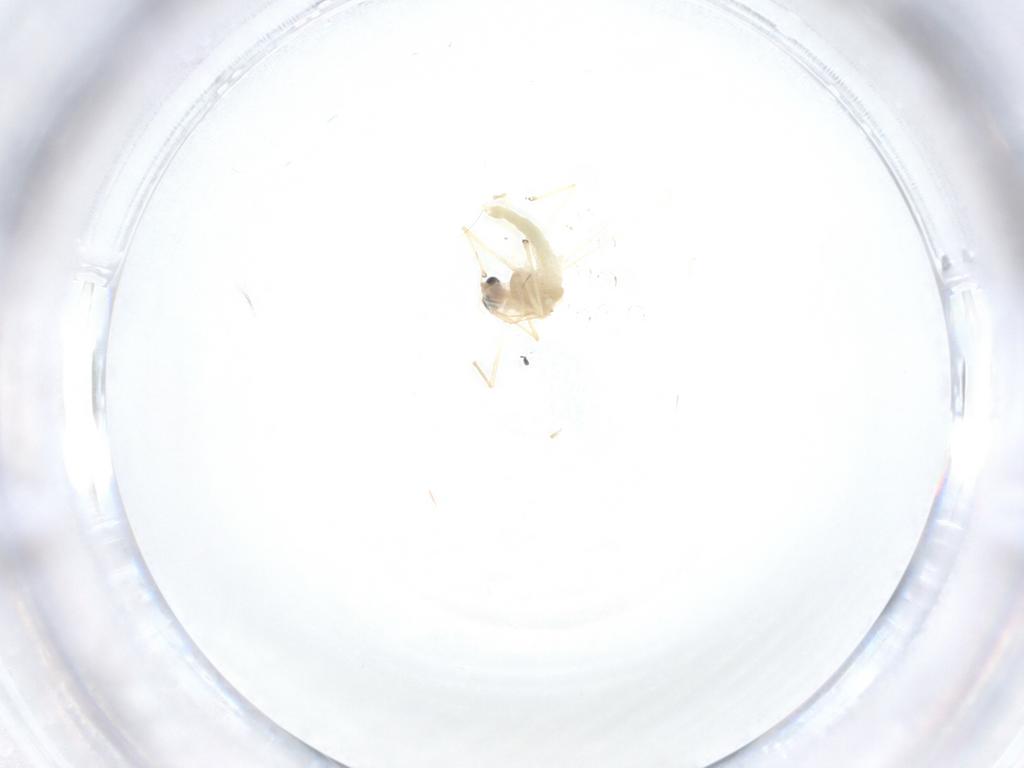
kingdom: Animalia
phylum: Arthropoda
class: Insecta
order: Diptera
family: Chironomidae
